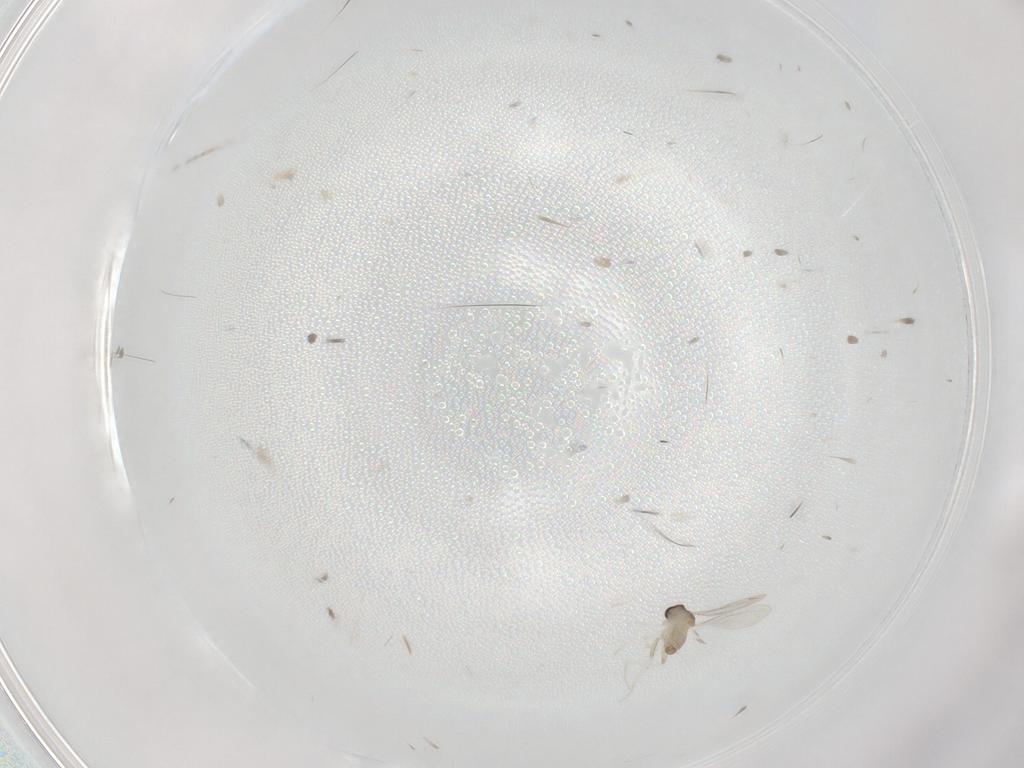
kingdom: Animalia
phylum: Arthropoda
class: Insecta
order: Diptera
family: Cecidomyiidae
